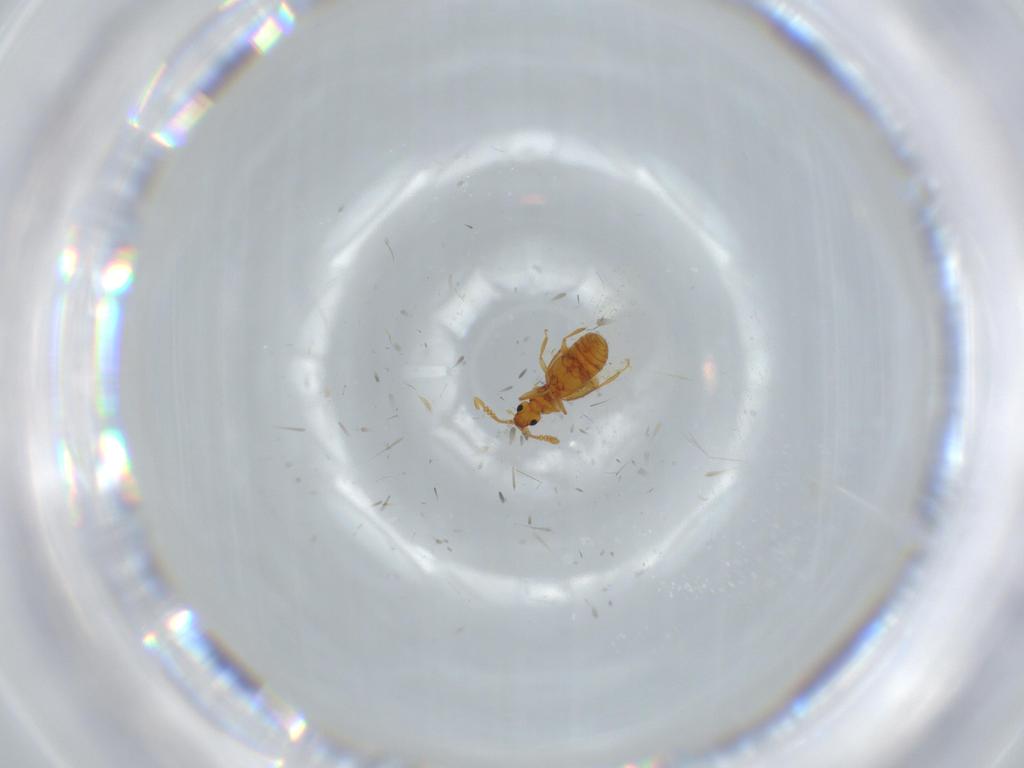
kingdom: Animalia
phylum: Arthropoda
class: Insecta
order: Coleoptera
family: Staphylinidae
